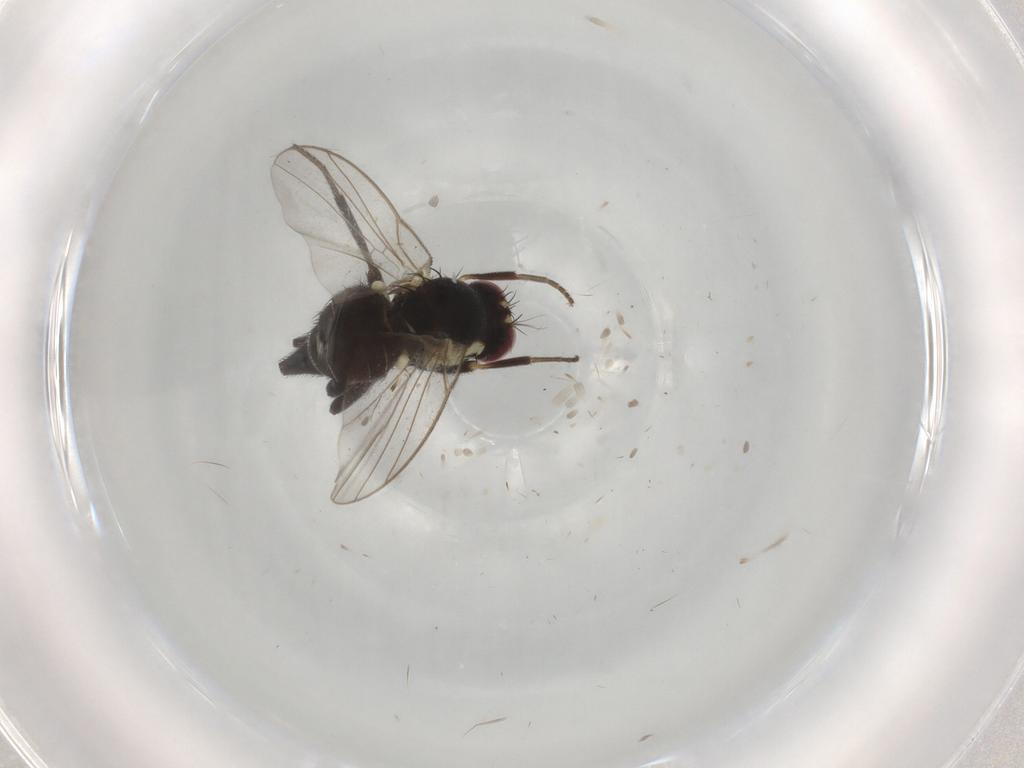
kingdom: Animalia
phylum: Arthropoda
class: Insecta
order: Diptera
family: Agromyzidae
